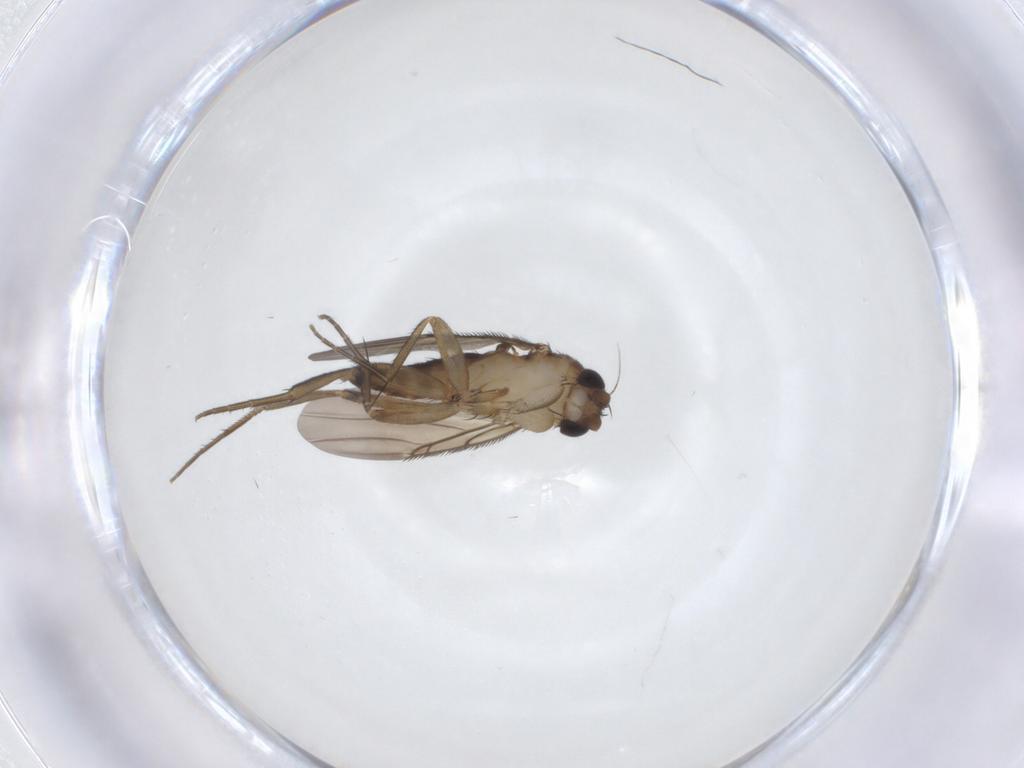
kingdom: Animalia
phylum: Arthropoda
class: Insecta
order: Diptera
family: Phoridae
